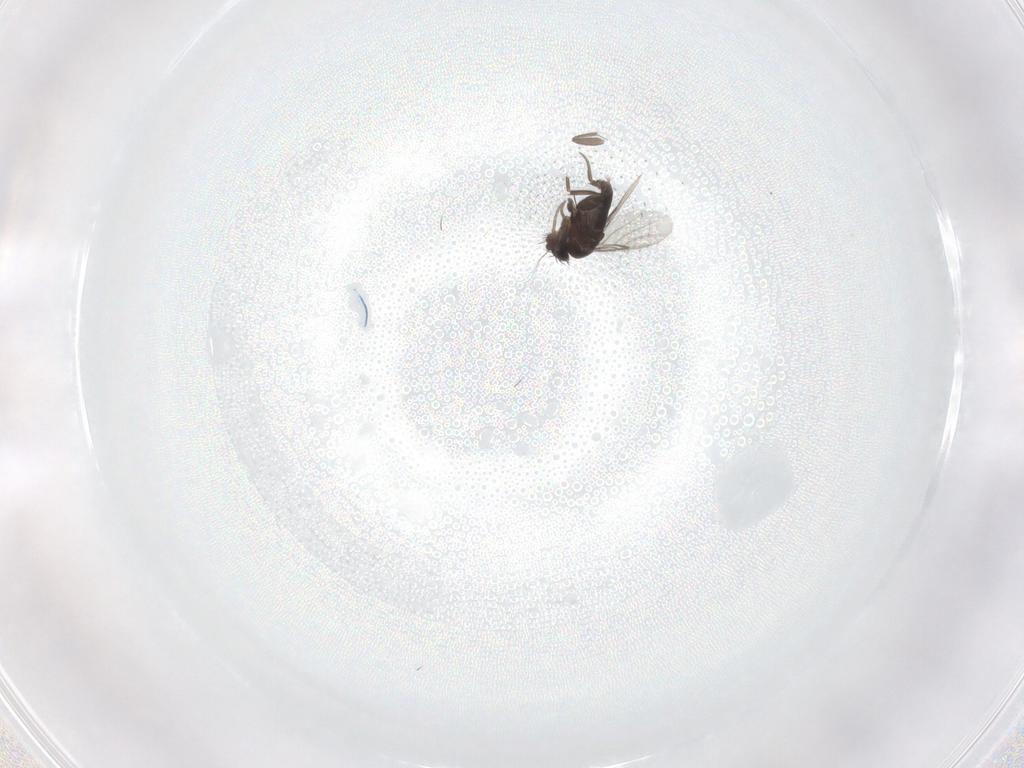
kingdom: Animalia
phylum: Arthropoda
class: Insecta
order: Diptera
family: Phoridae
